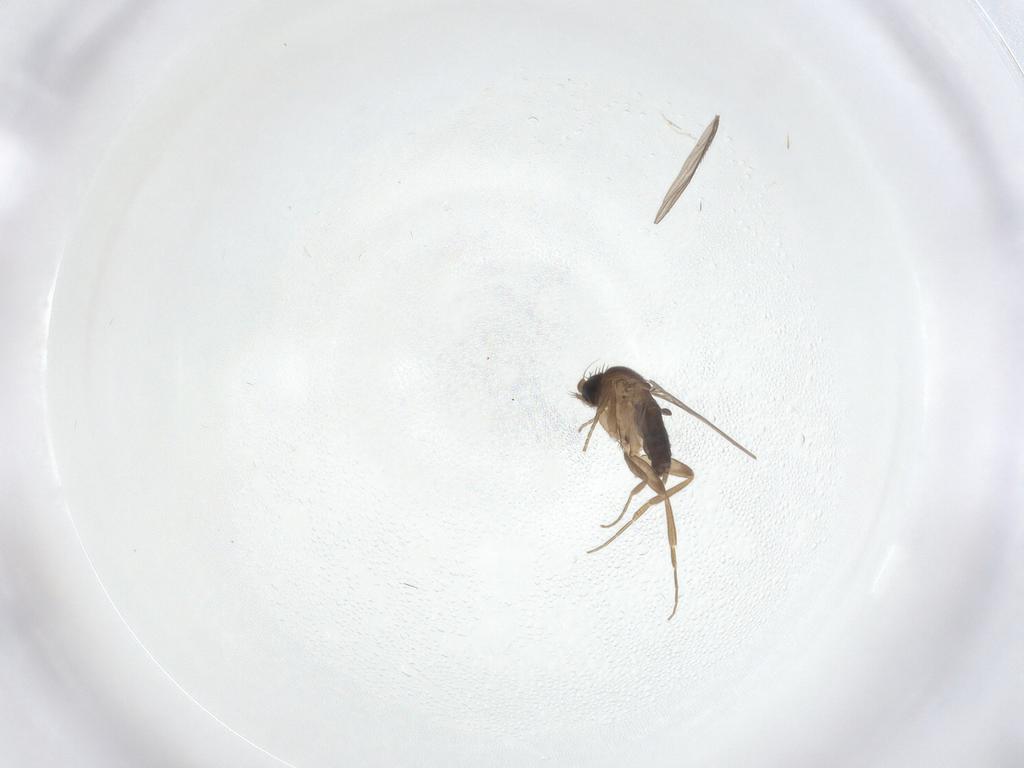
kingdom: Animalia
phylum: Arthropoda
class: Insecta
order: Diptera
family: Phoridae
